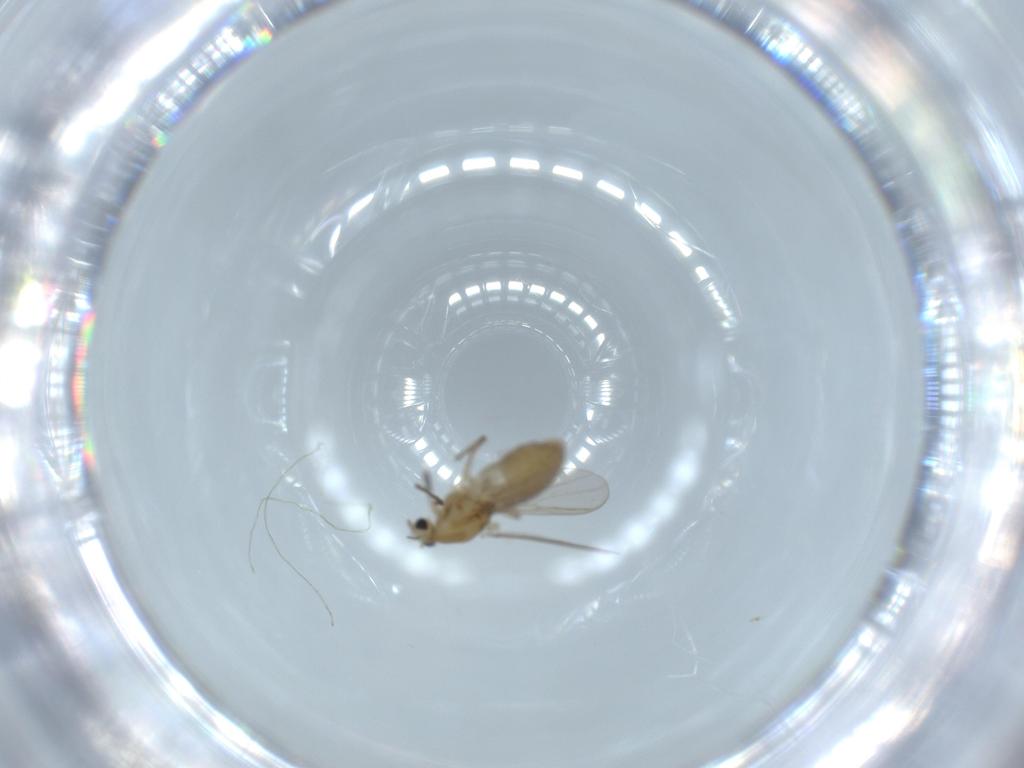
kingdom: Animalia
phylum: Arthropoda
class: Insecta
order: Diptera
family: Chironomidae
